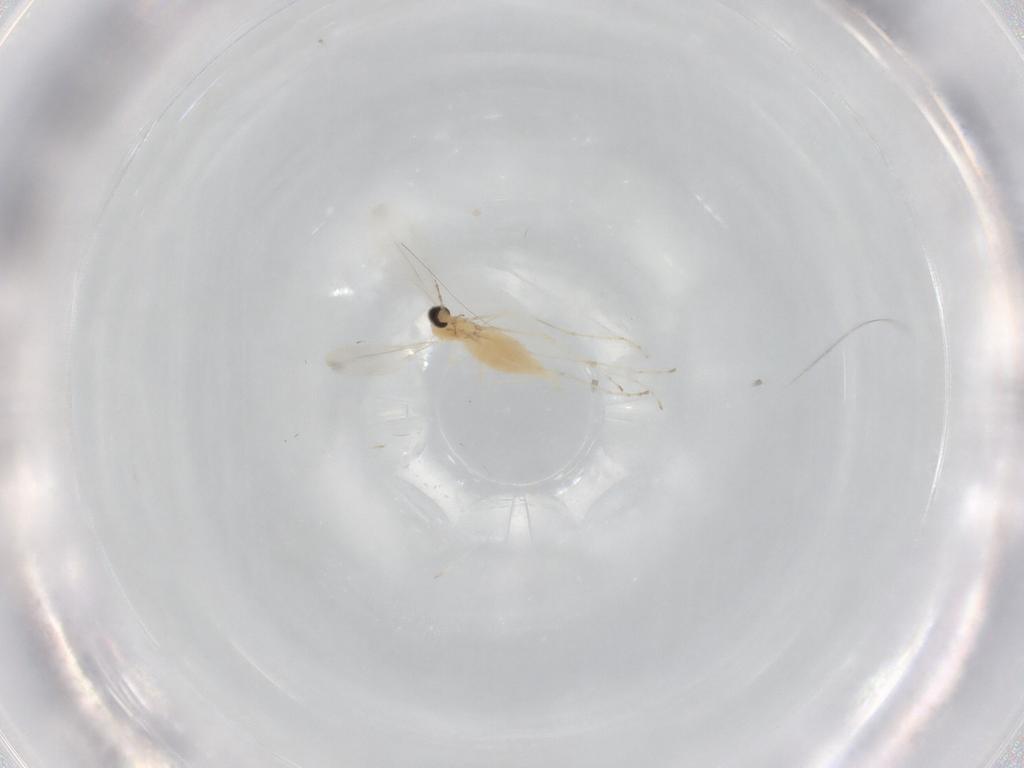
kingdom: Animalia
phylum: Arthropoda
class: Insecta
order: Diptera
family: Cecidomyiidae
